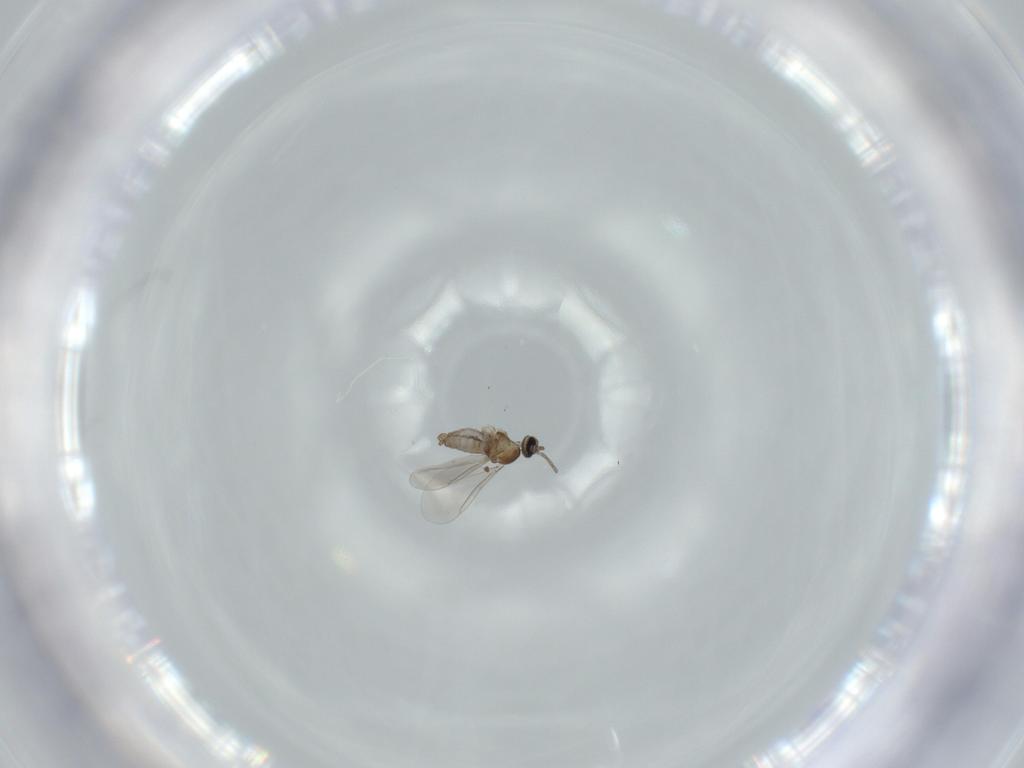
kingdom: Animalia
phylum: Arthropoda
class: Insecta
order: Diptera
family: Cecidomyiidae
